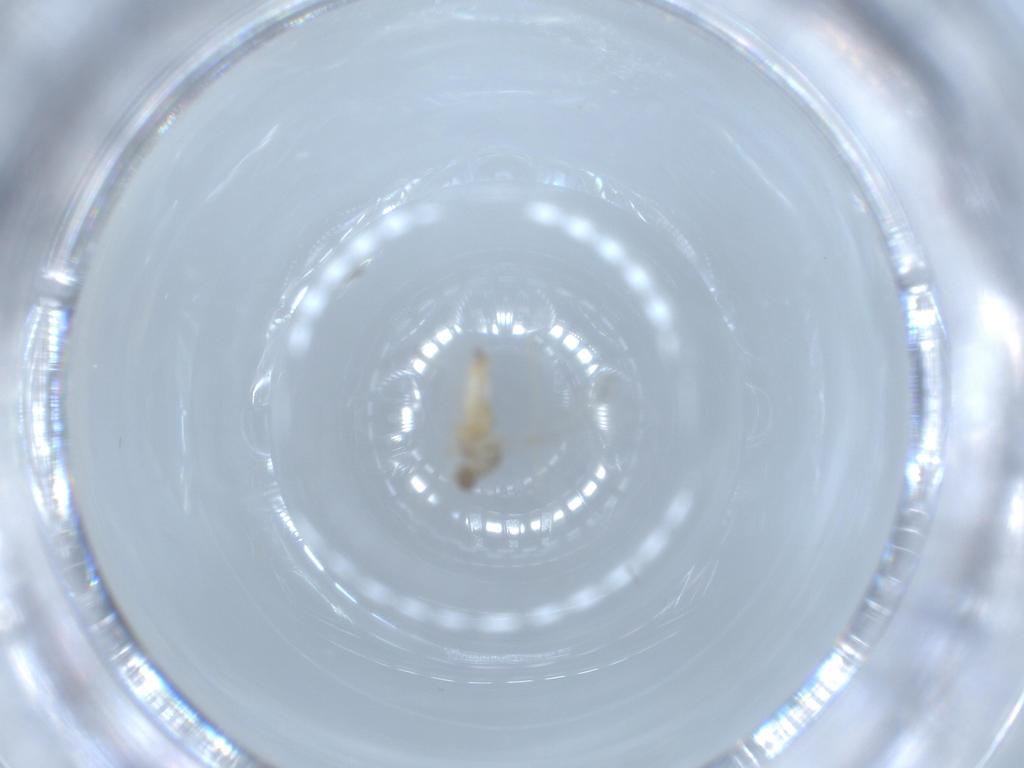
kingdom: Animalia
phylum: Arthropoda
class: Insecta
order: Diptera
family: Cecidomyiidae
